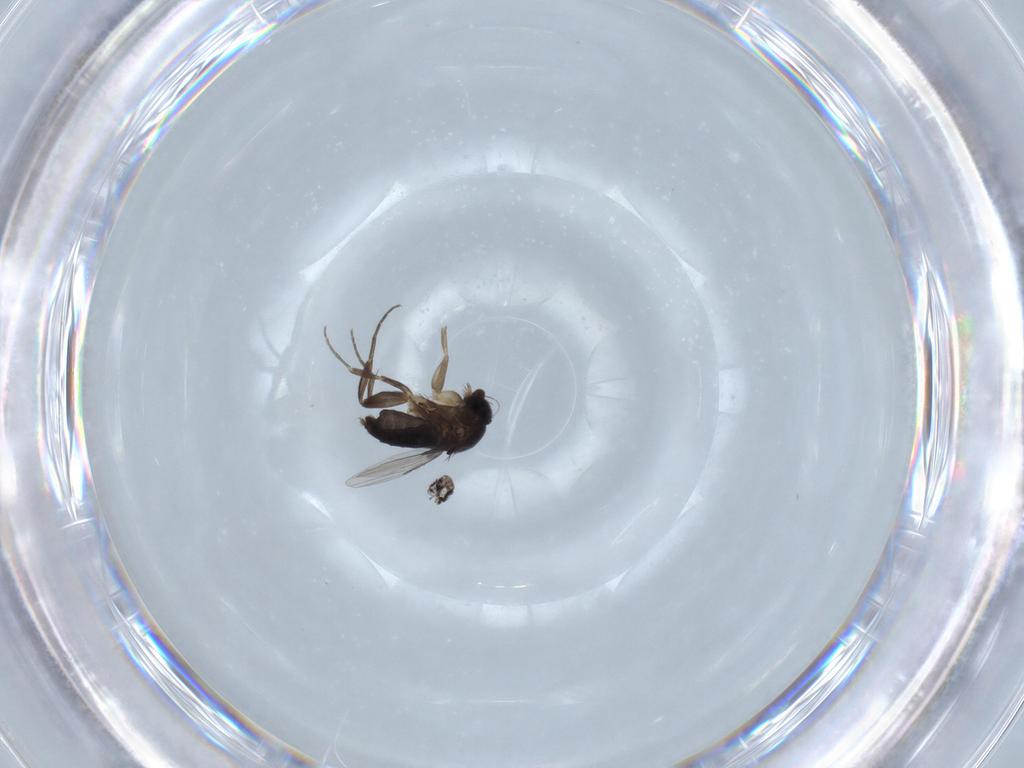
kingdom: Animalia
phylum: Arthropoda
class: Insecta
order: Diptera
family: Phoridae
